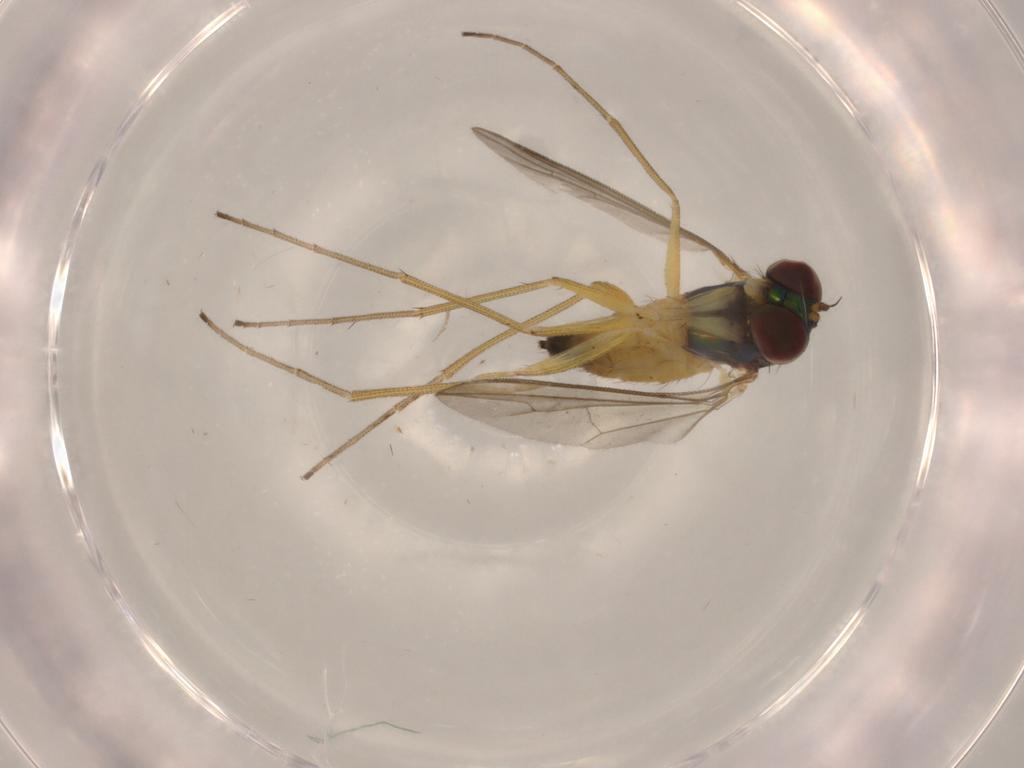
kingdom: Animalia
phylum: Arthropoda
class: Insecta
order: Diptera
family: Dolichopodidae
